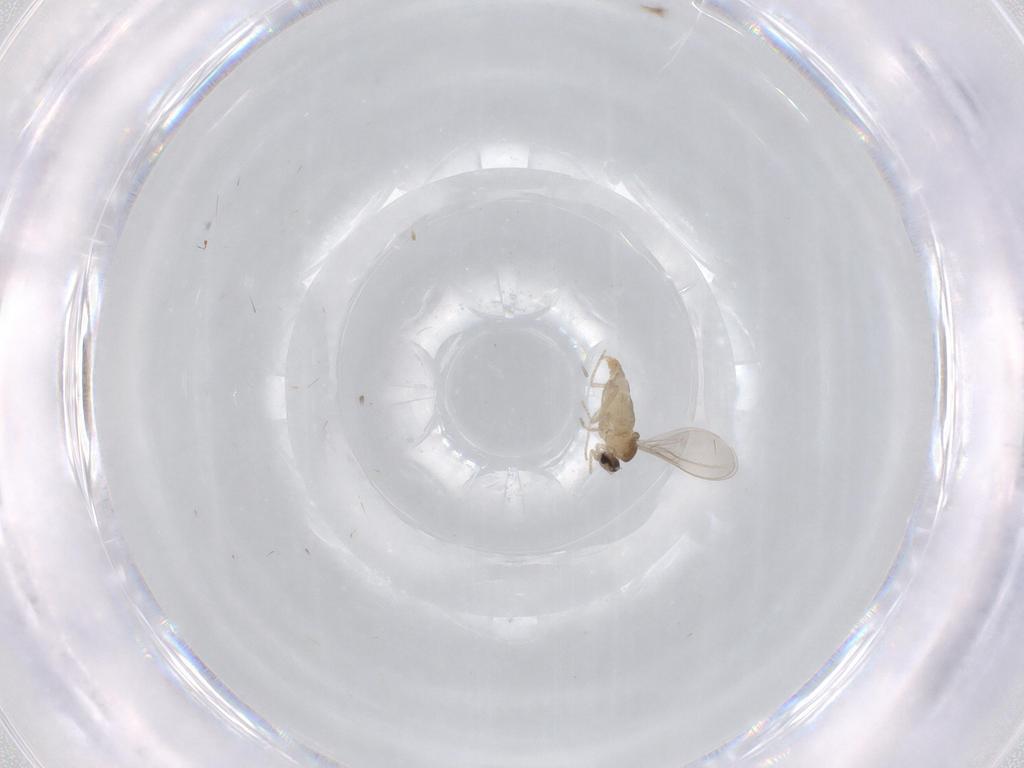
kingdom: Animalia
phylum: Arthropoda
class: Insecta
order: Diptera
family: Cecidomyiidae
